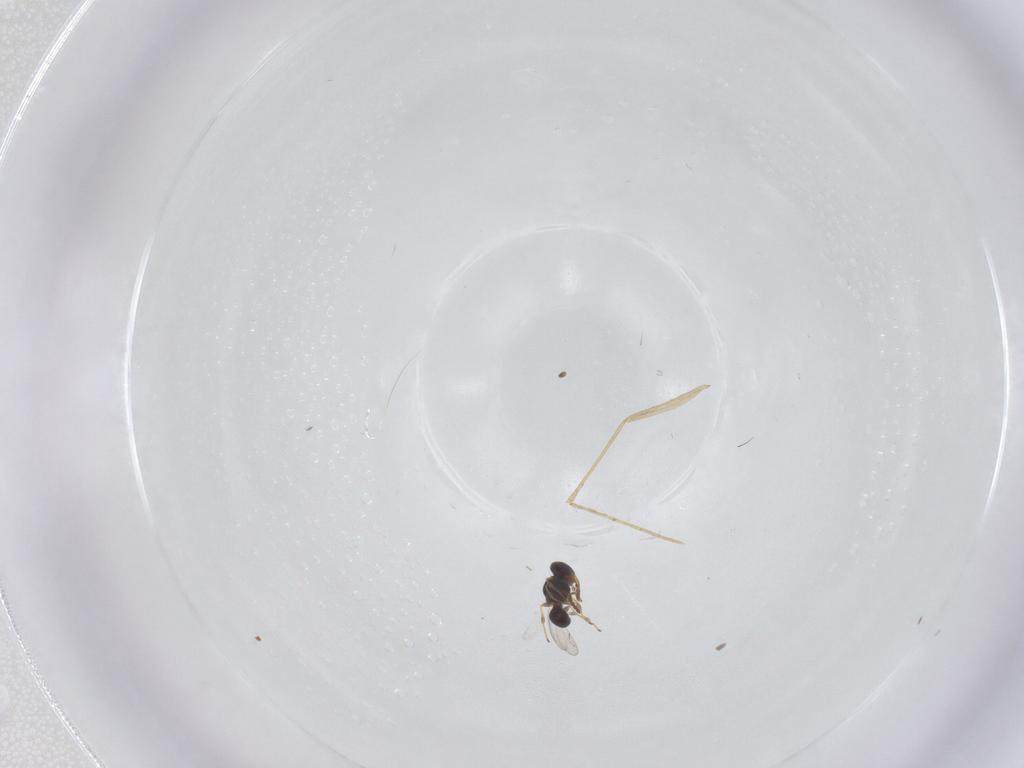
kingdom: Animalia
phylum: Arthropoda
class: Insecta
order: Hymenoptera
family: Platygastridae
